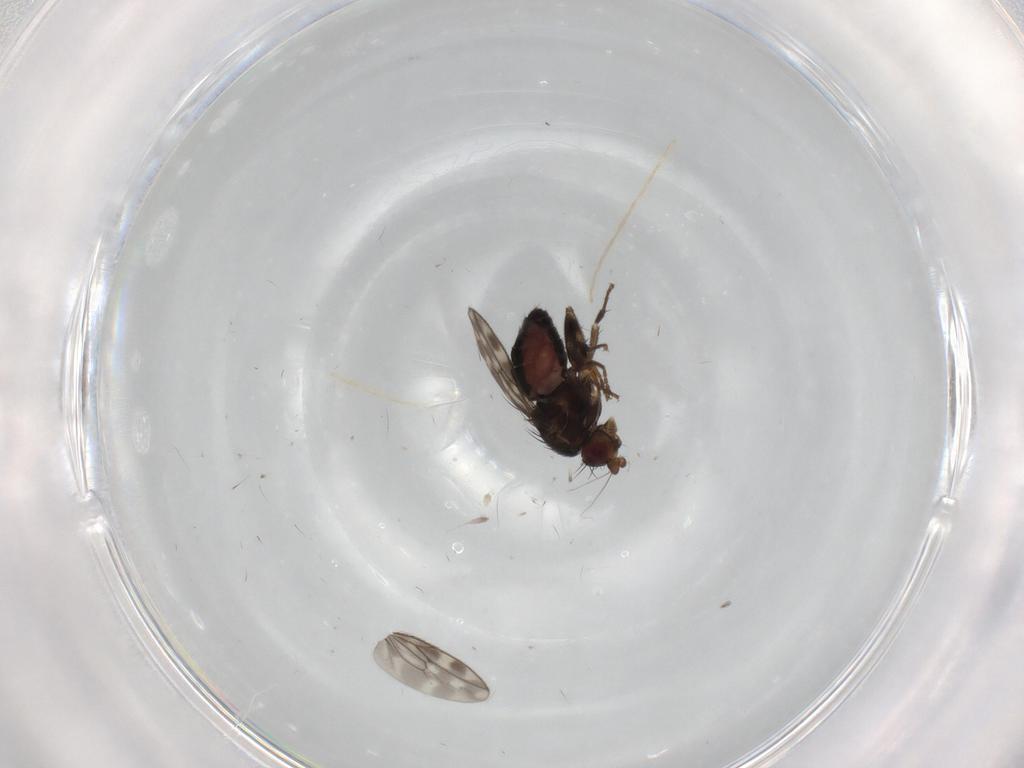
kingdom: Animalia
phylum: Arthropoda
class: Insecta
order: Diptera
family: Sphaeroceridae
